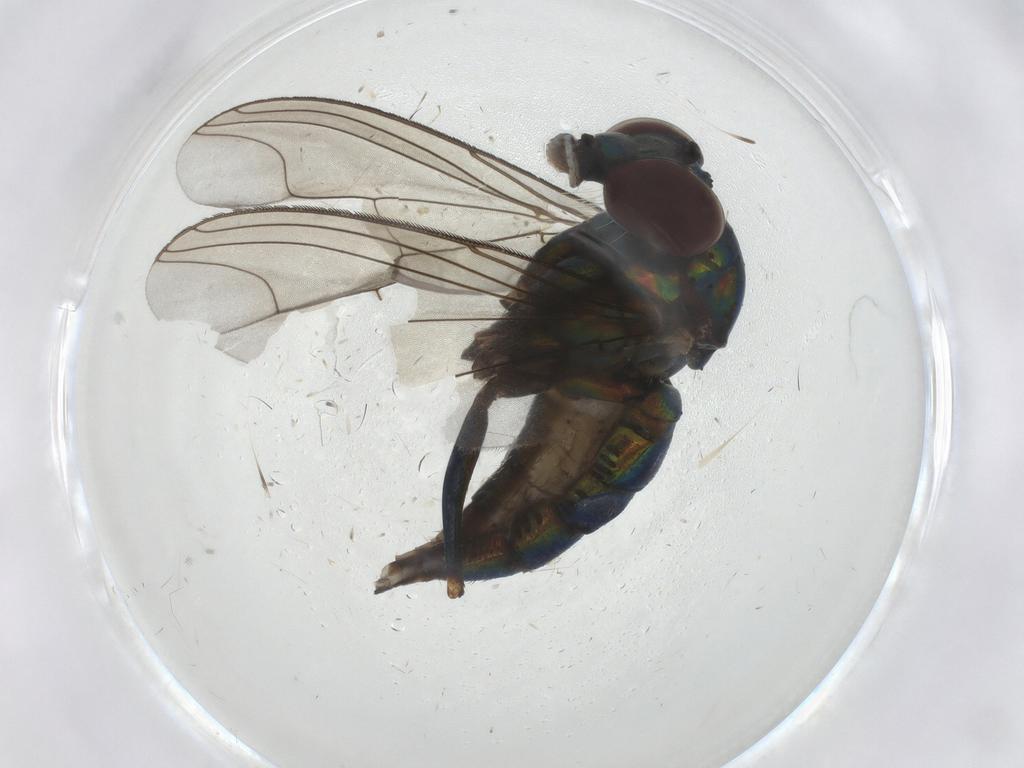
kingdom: Animalia
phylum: Arthropoda
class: Insecta
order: Diptera
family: Dolichopodidae
